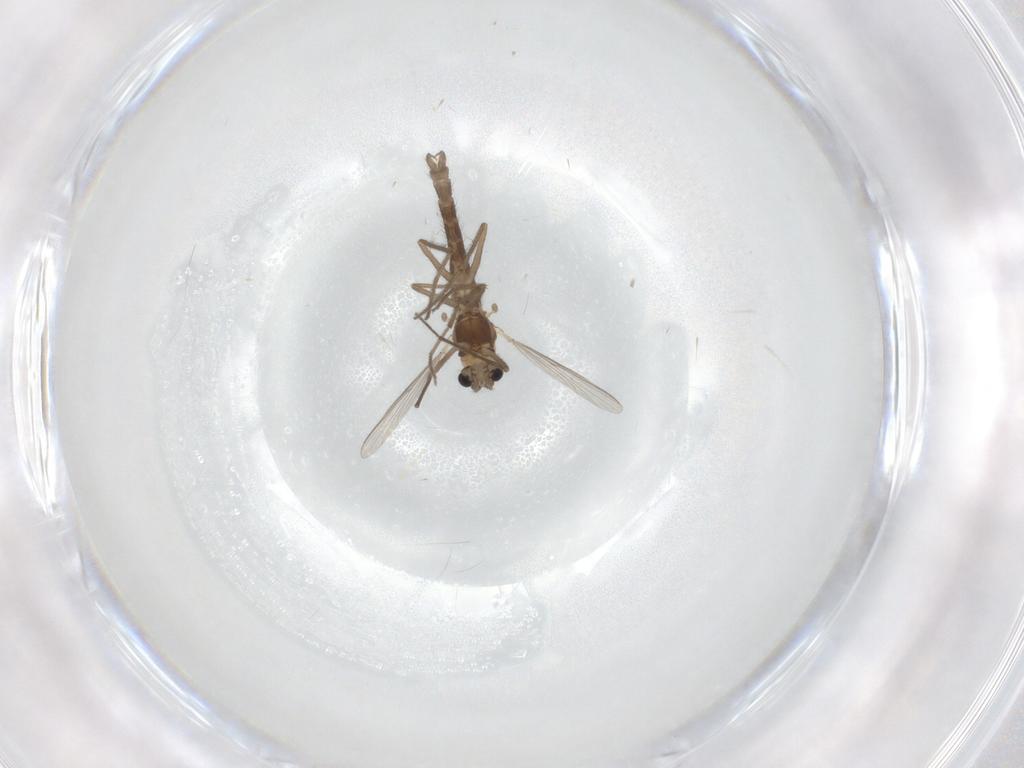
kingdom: Animalia
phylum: Arthropoda
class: Insecta
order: Diptera
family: Chironomidae
